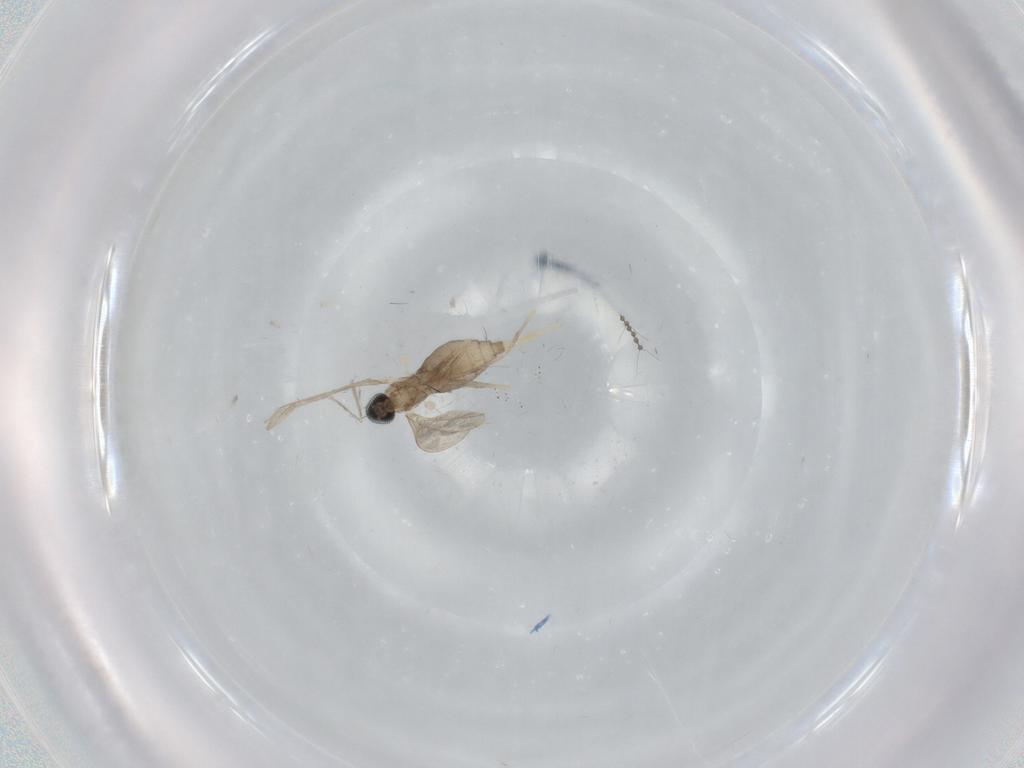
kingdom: Animalia
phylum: Arthropoda
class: Insecta
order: Diptera
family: Cecidomyiidae
